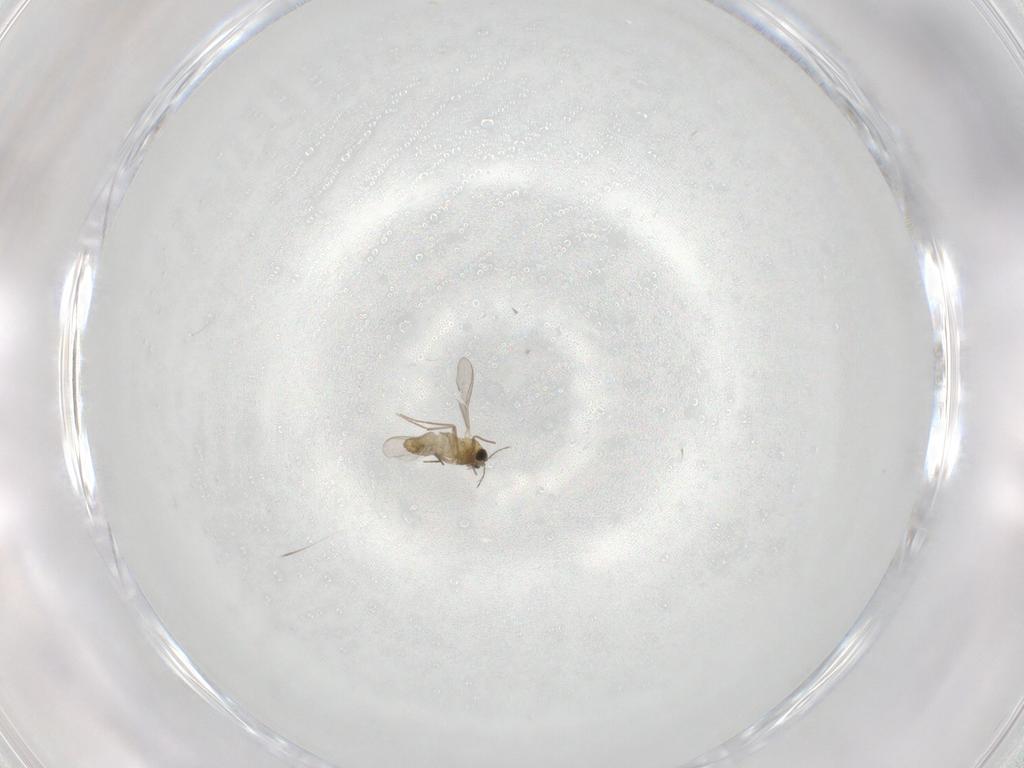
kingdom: Animalia
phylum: Arthropoda
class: Insecta
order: Diptera
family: Chironomidae
